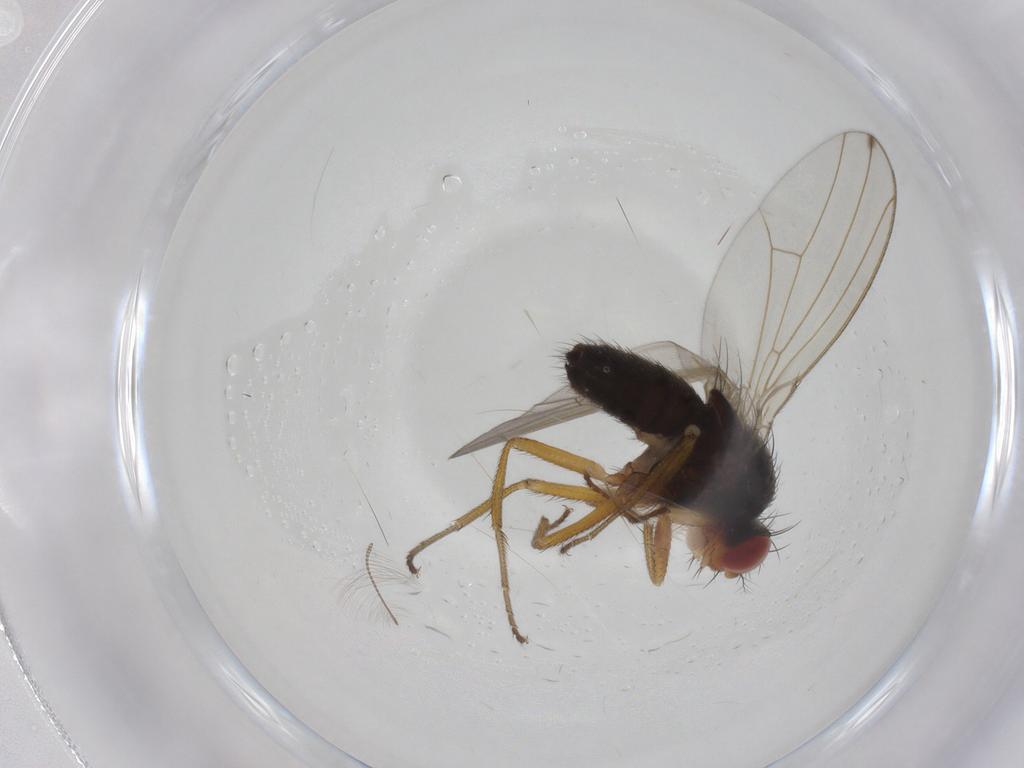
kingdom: Animalia
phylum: Arthropoda
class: Insecta
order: Diptera
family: Drosophilidae
